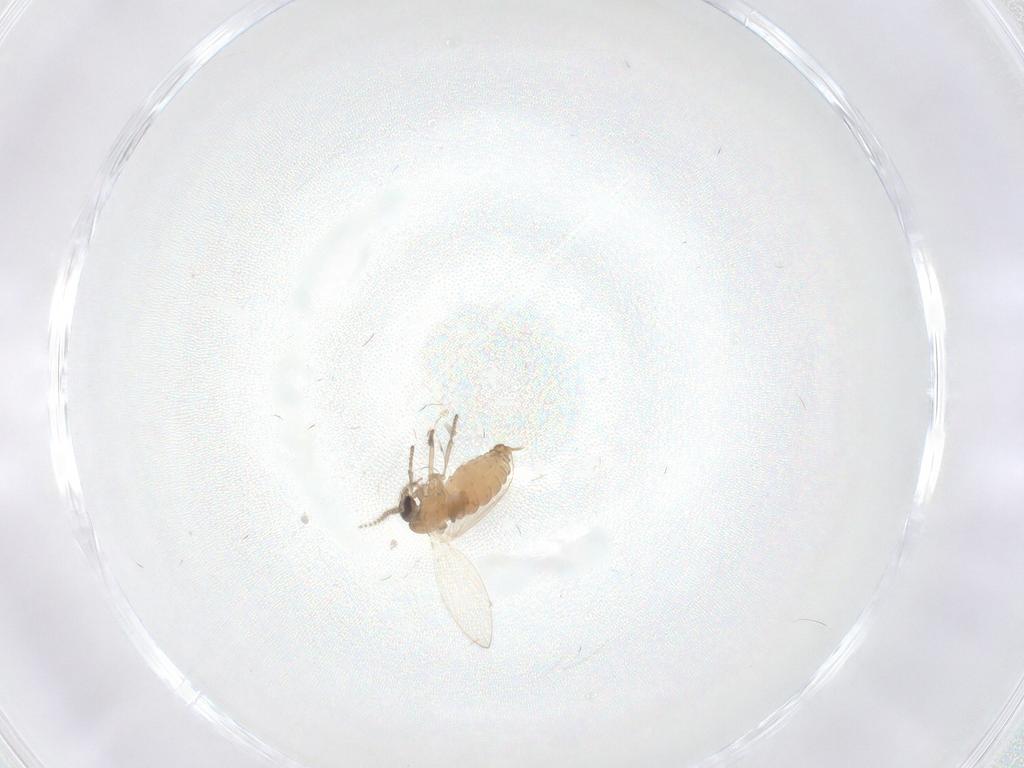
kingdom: Animalia
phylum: Arthropoda
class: Insecta
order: Diptera
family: Psychodidae
